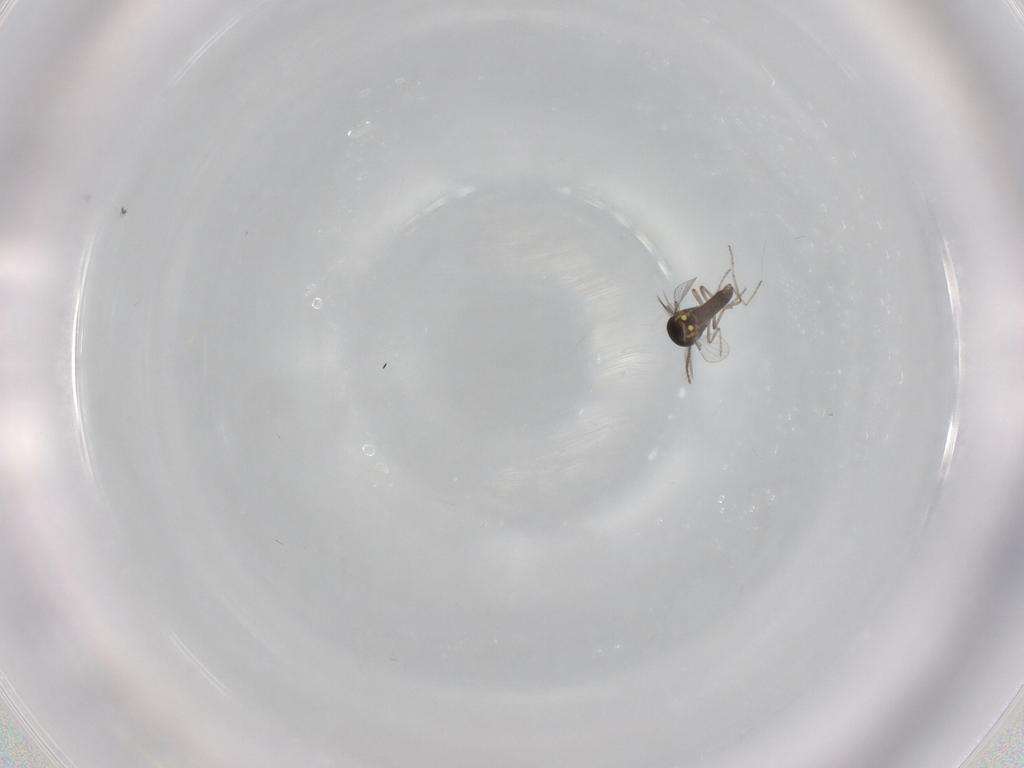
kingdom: Animalia
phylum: Arthropoda
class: Insecta
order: Diptera
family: Ceratopogonidae
